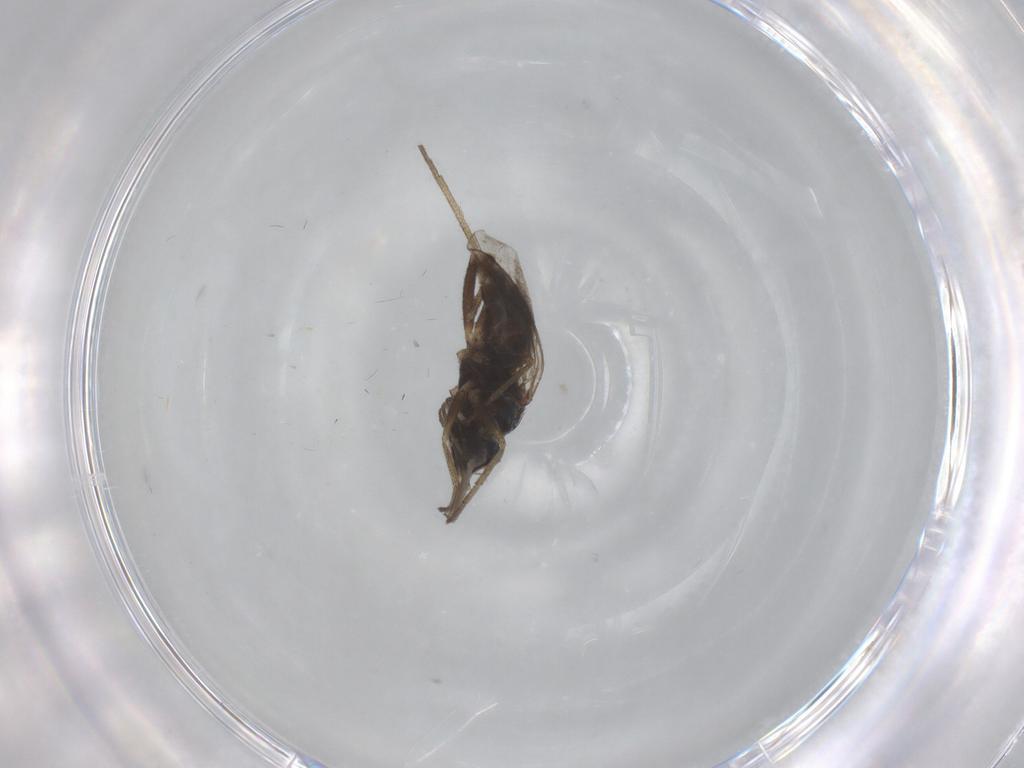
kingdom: Animalia
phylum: Arthropoda
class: Insecta
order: Diptera
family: Chironomidae
